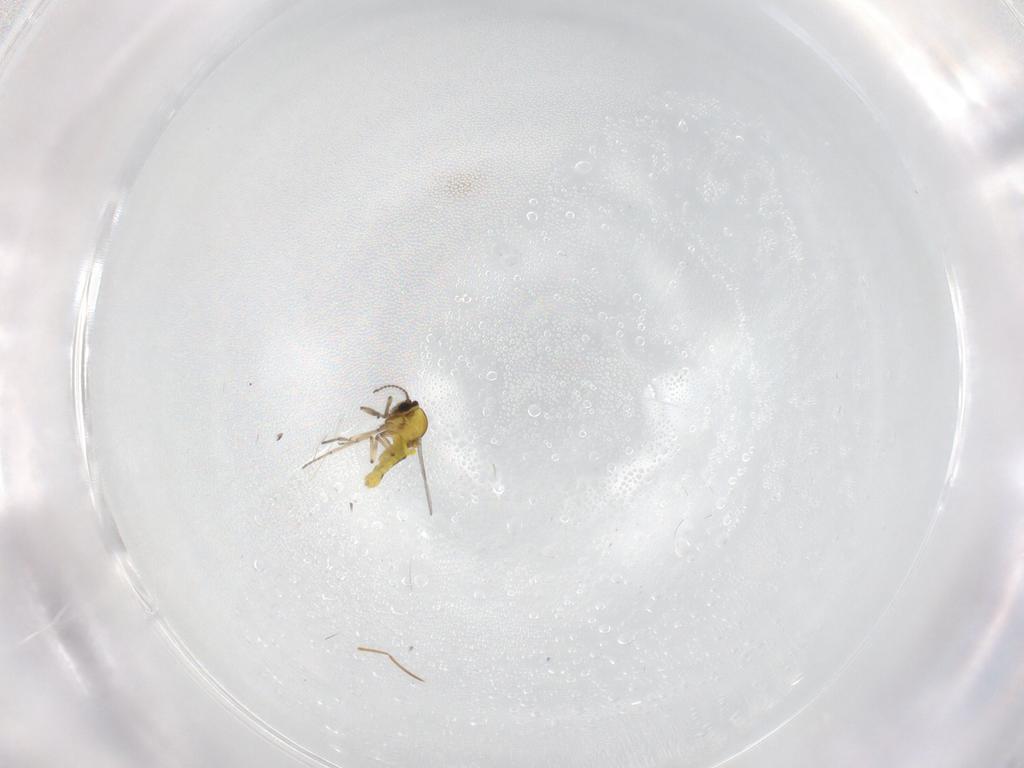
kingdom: Animalia
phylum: Arthropoda
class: Insecta
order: Diptera
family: Ceratopogonidae
